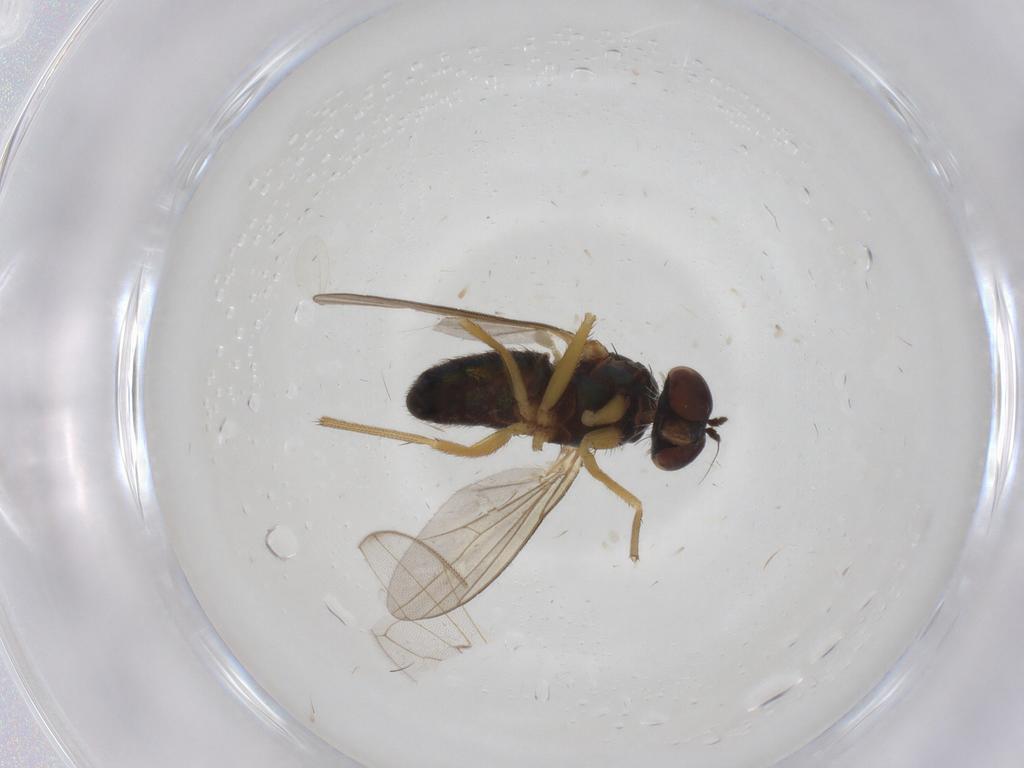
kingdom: Animalia
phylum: Arthropoda
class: Insecta
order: Diptera
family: Dolichopodidae
